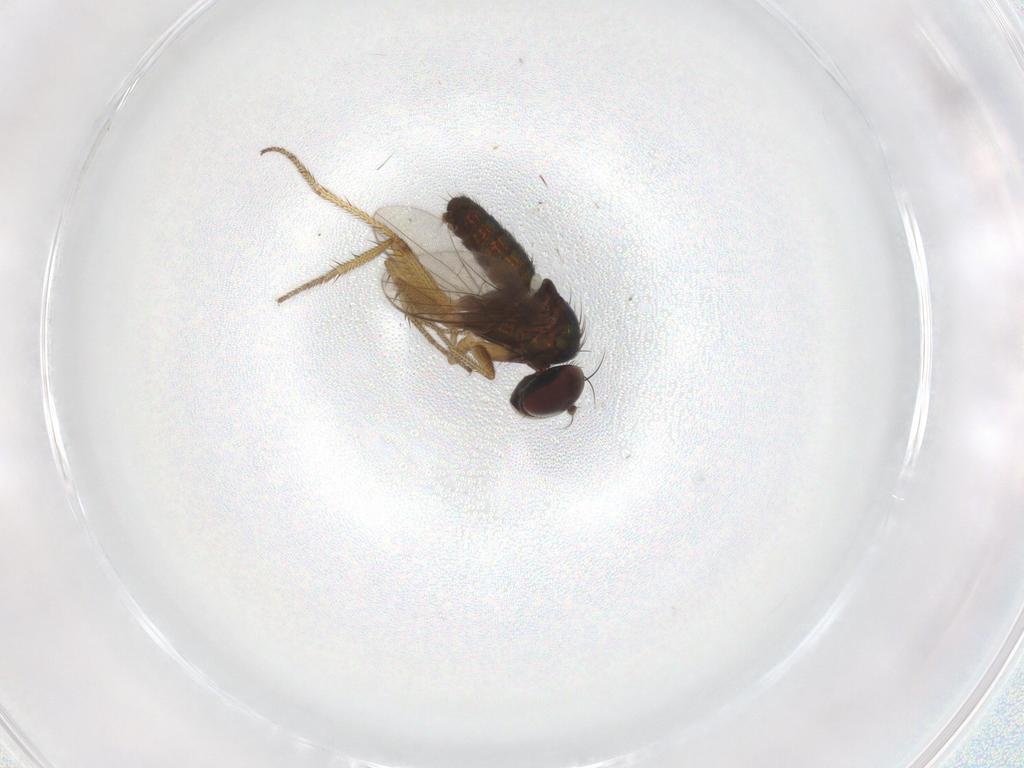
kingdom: Animalia
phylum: Arthropoda
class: Insecta
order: Diptera
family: Dolichopodidae
